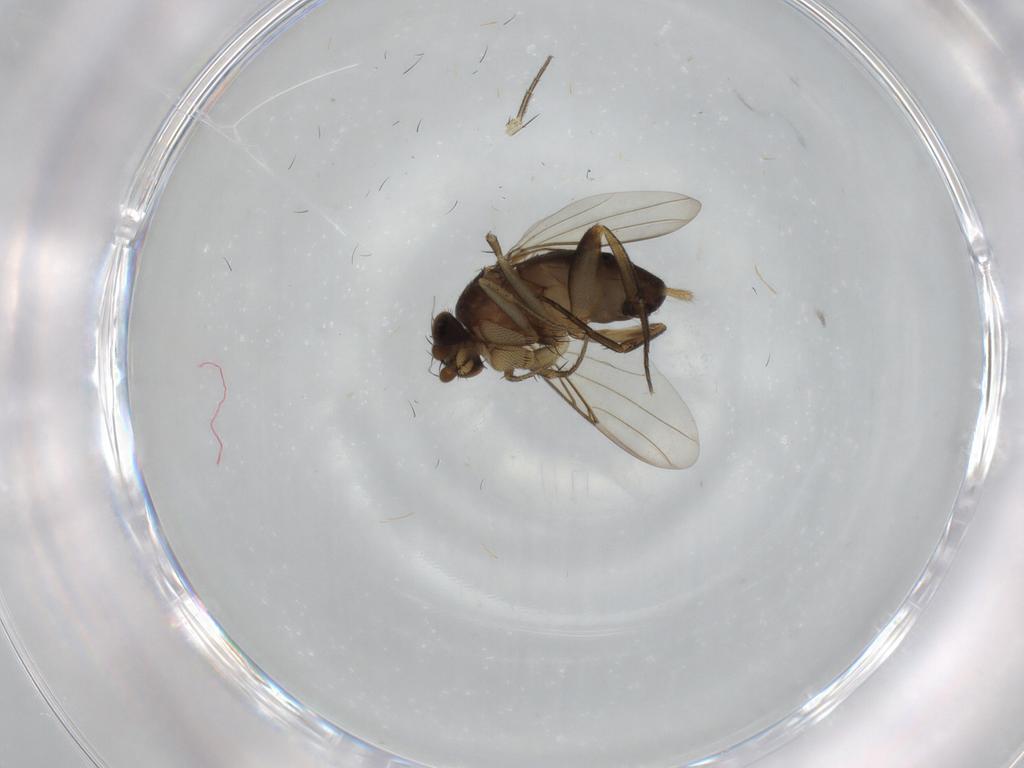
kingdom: Animalia
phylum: Arthropoda
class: Insecta
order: Diptera
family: Phoridae
